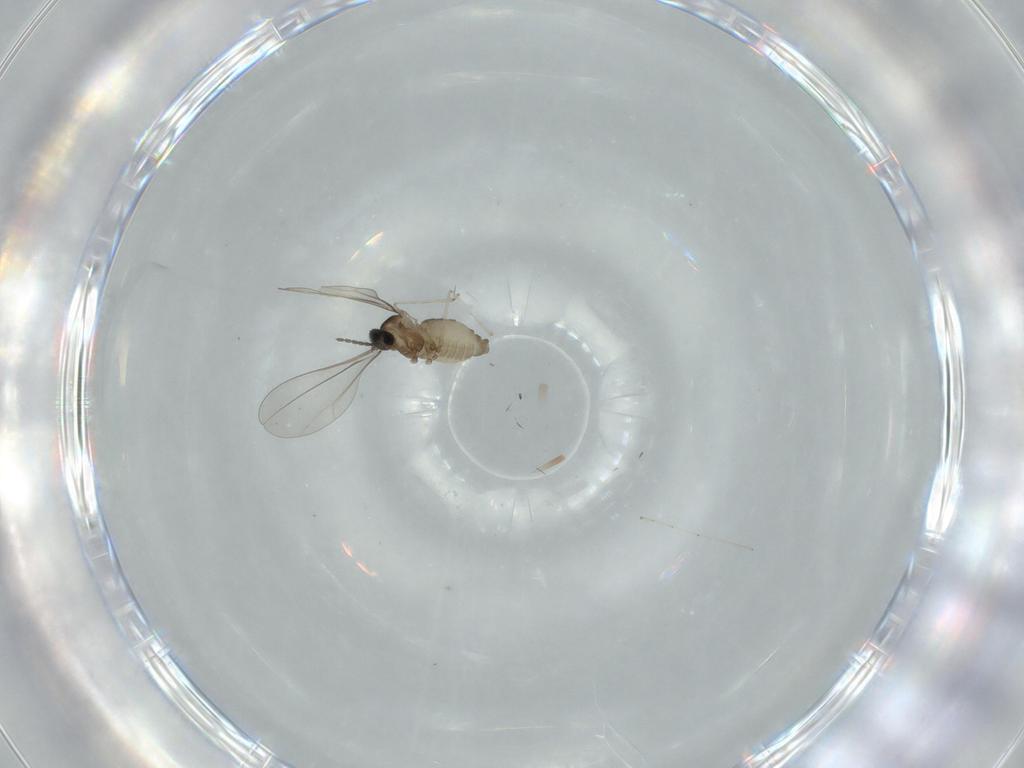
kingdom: Animalia
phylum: Arthropoda
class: Insecta
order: Diptera
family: Cecidomyiidae
